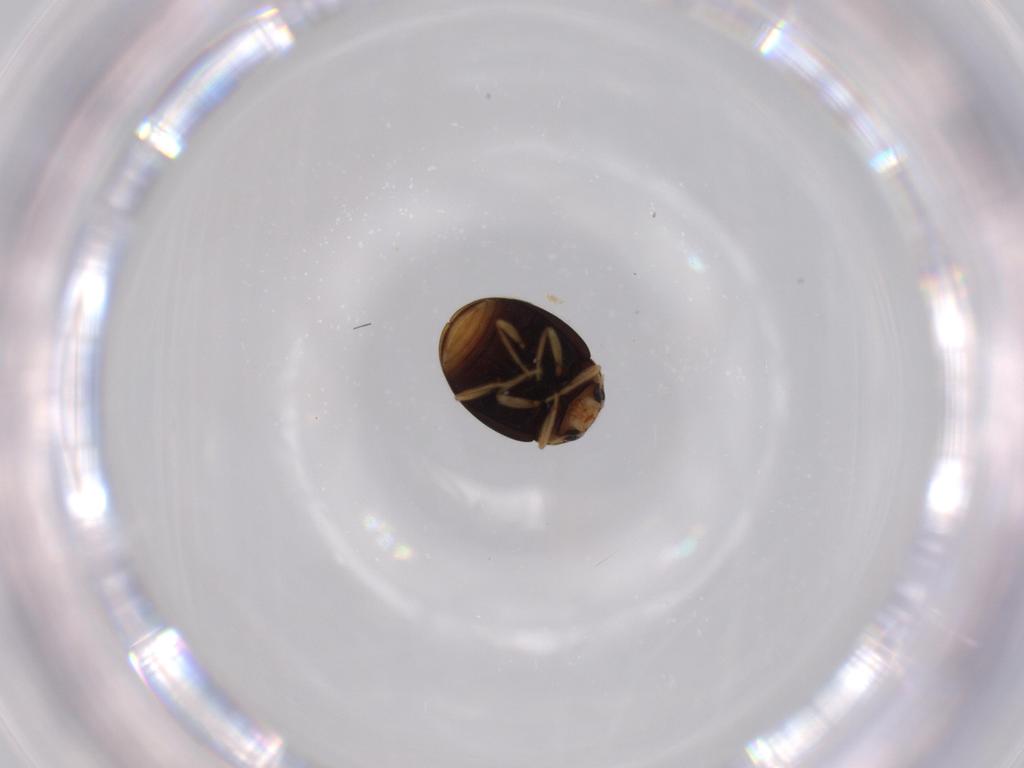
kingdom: Animalia
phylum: Arthropoda
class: Insecta
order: Coleoptera
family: Chrysomelidae
